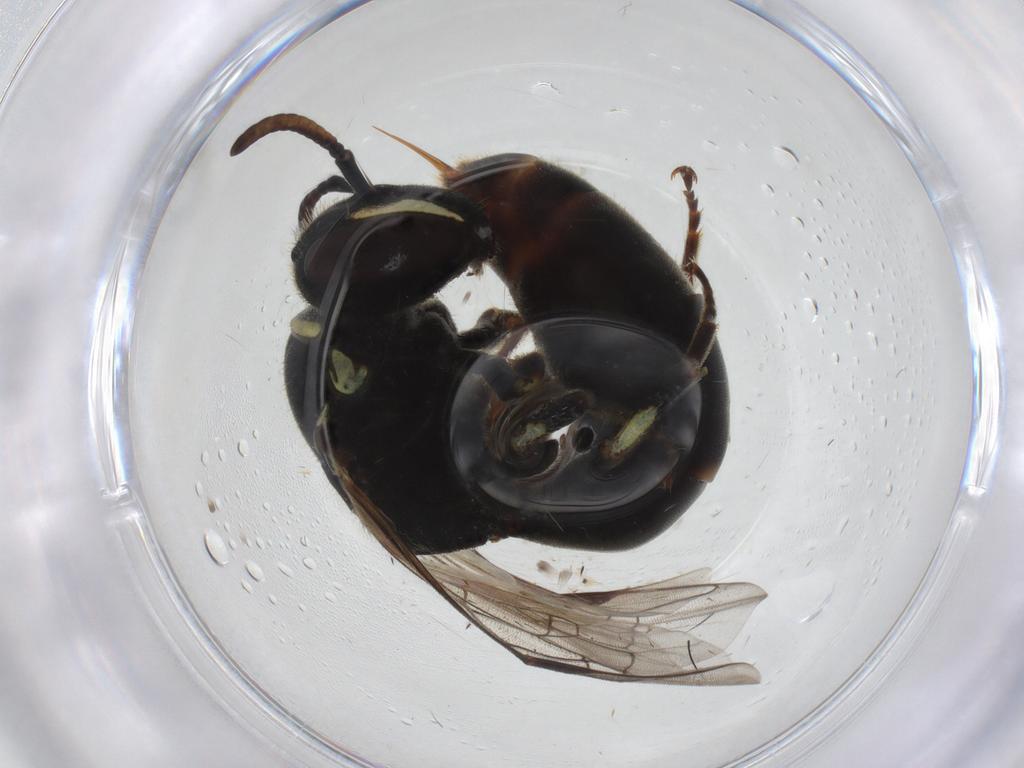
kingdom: Animalia
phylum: Arthropoda
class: Insecta
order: Hymenoptera
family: Colletidae
